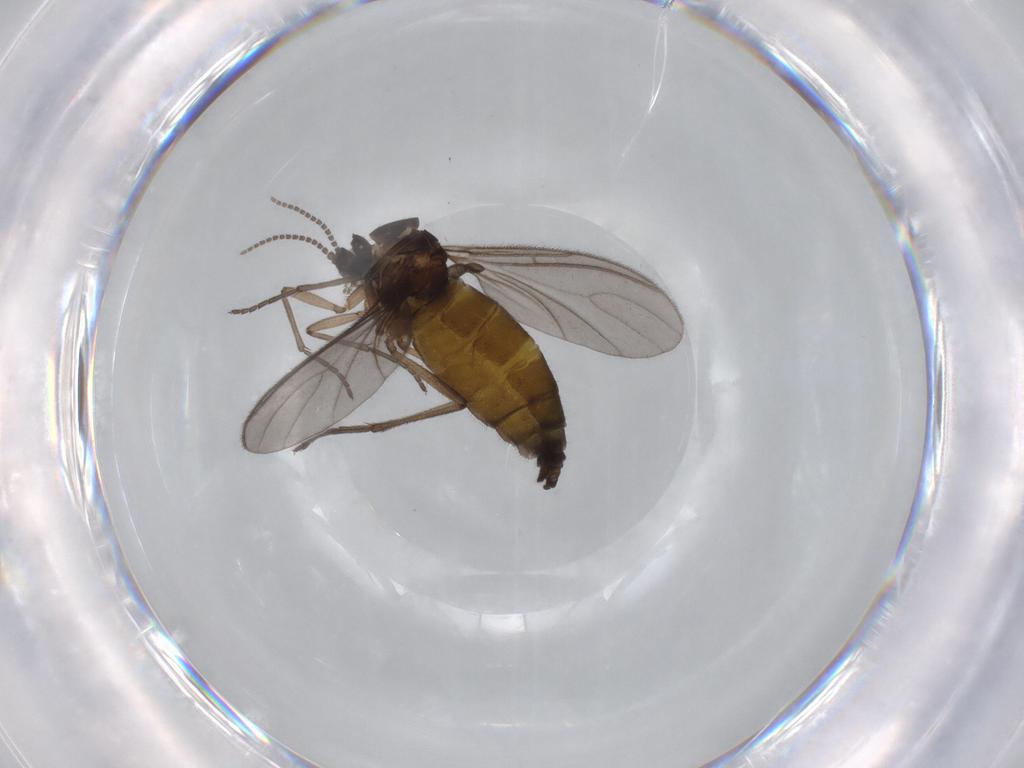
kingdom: Animalia
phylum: Arthropoda
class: Insecta
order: Diptera
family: Sciaridae
